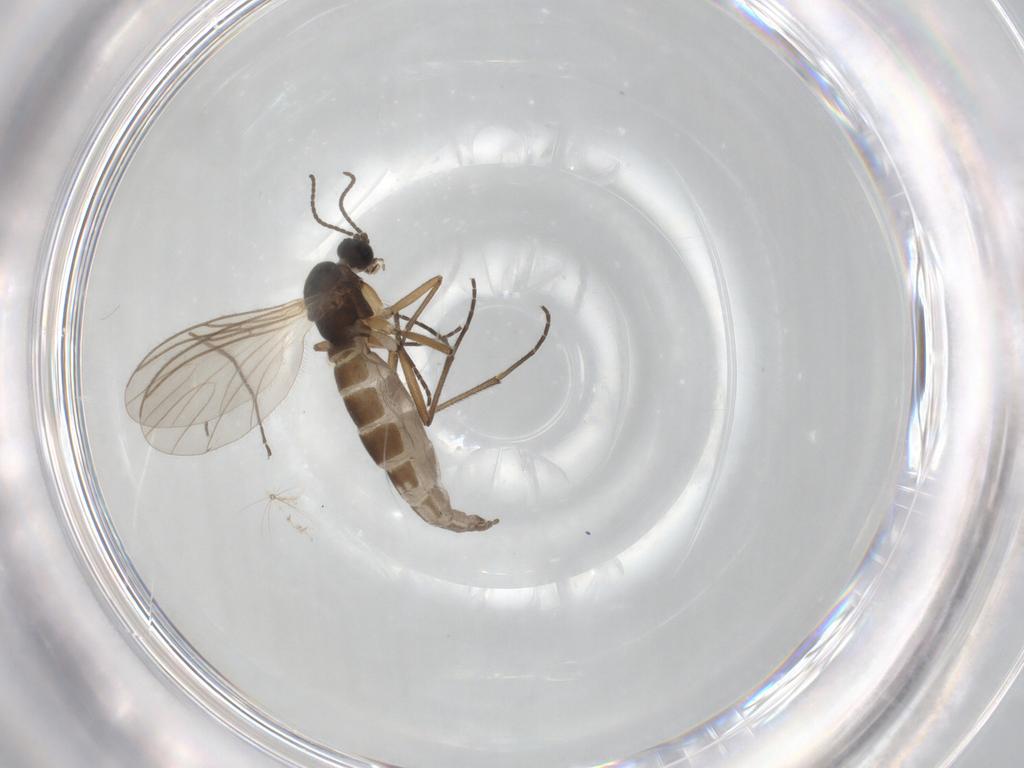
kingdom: Animalia
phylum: Arthropoda
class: Insecta
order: Diptera
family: Sciaridae
